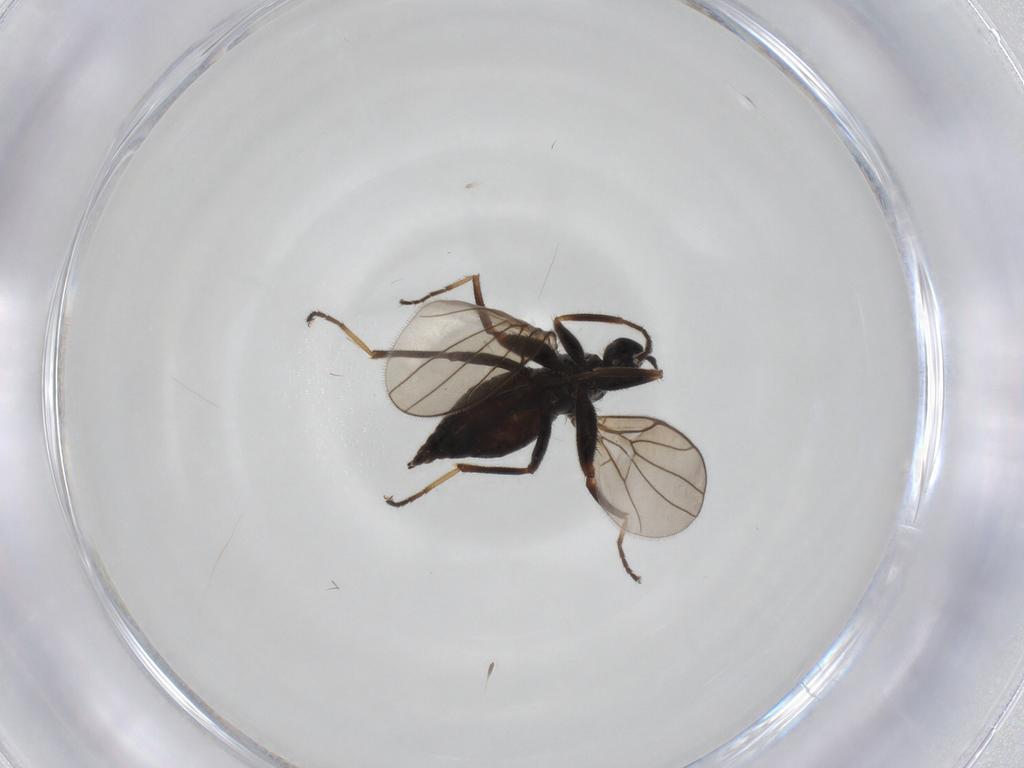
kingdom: Animalia
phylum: Arthropoda
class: Insecta
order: Diptera
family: Chironomidae
